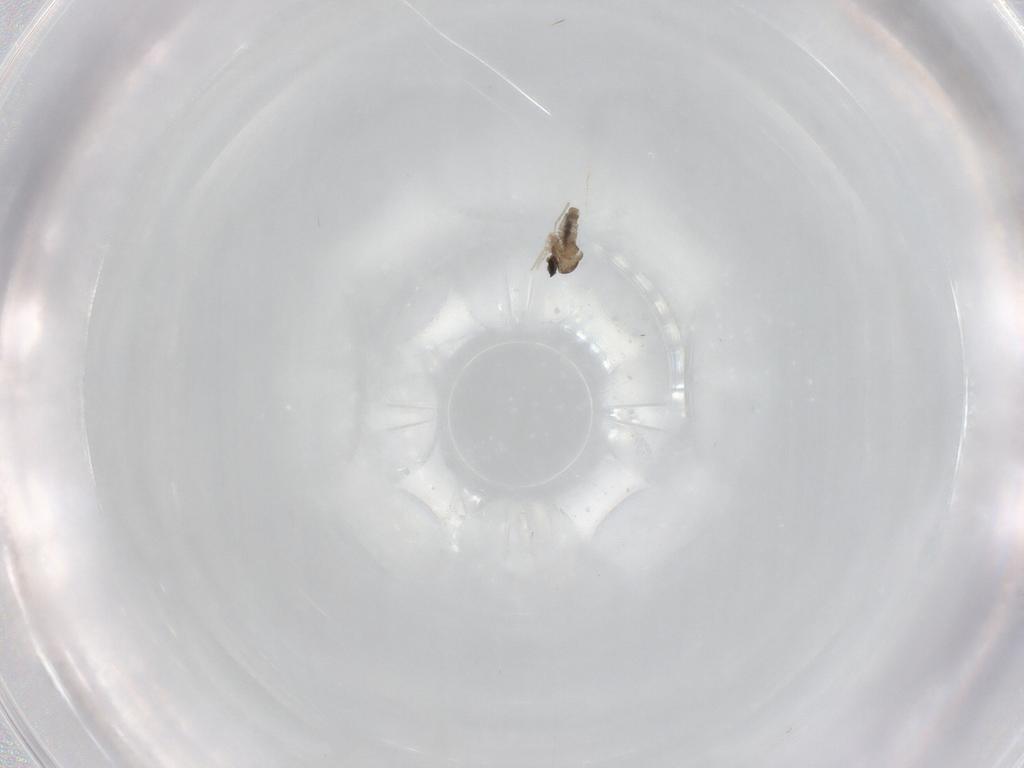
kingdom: Animalia
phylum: Arthropoda
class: Insecta
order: Diptera
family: Cecidomyiidae
